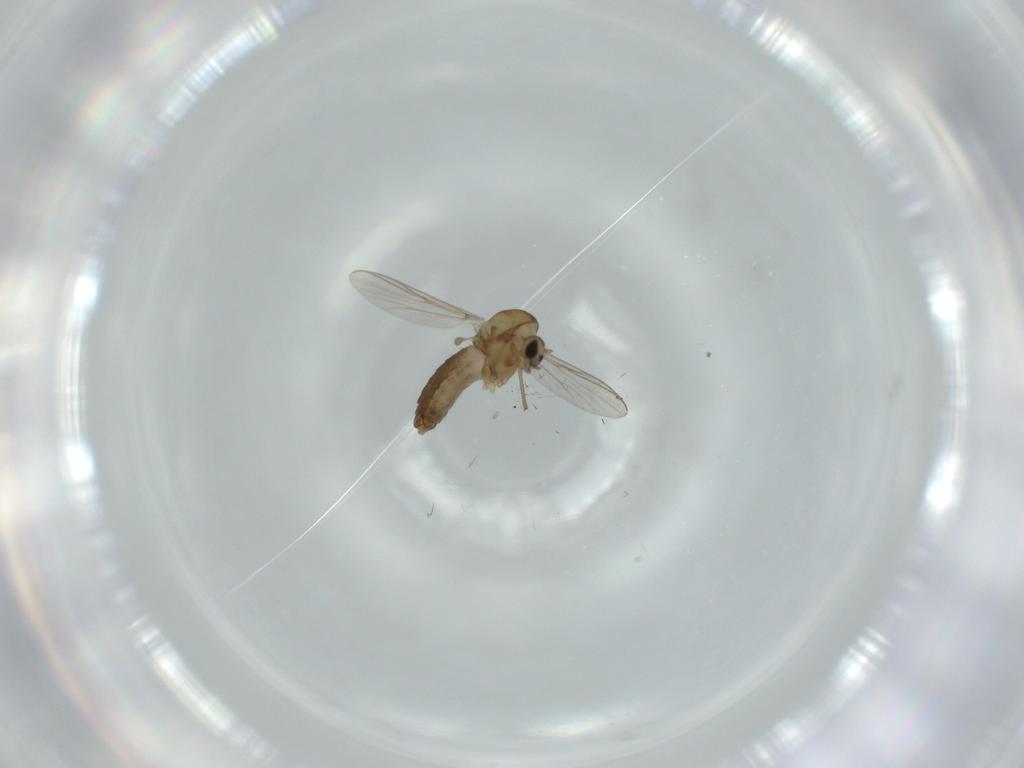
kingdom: Animalia
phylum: Arthropoda
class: Insecta
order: Diptera
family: Chironomidae
